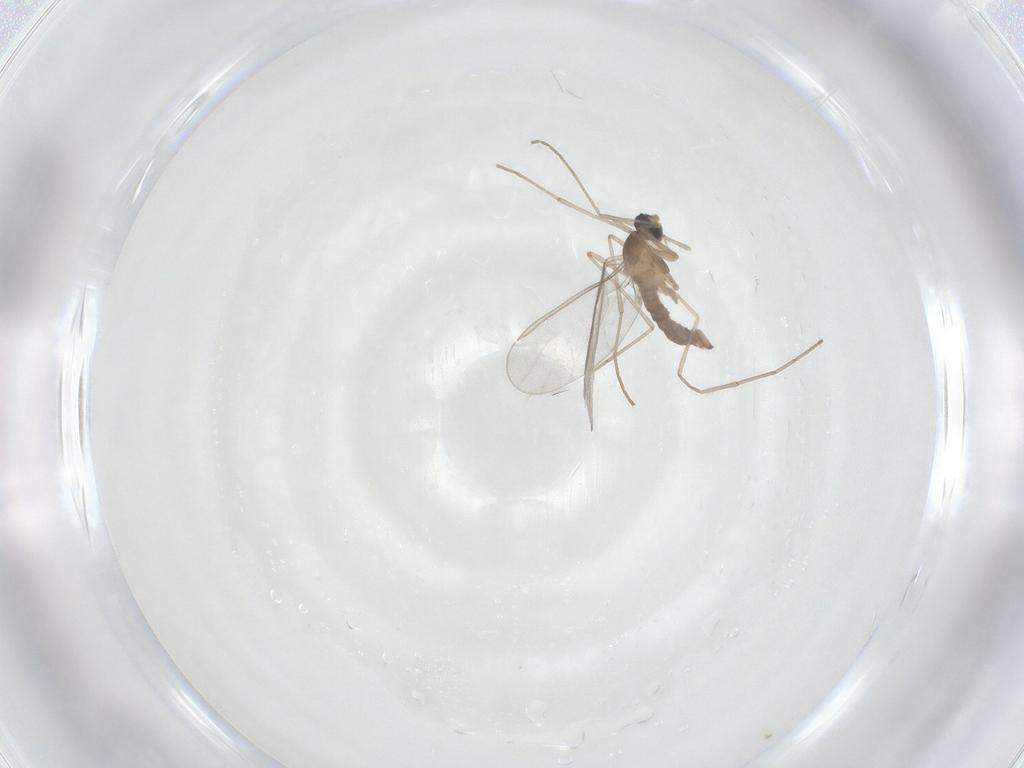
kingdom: Animalia
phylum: Arthropoda
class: Insecta
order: Diptera
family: Cecidomyiidae
